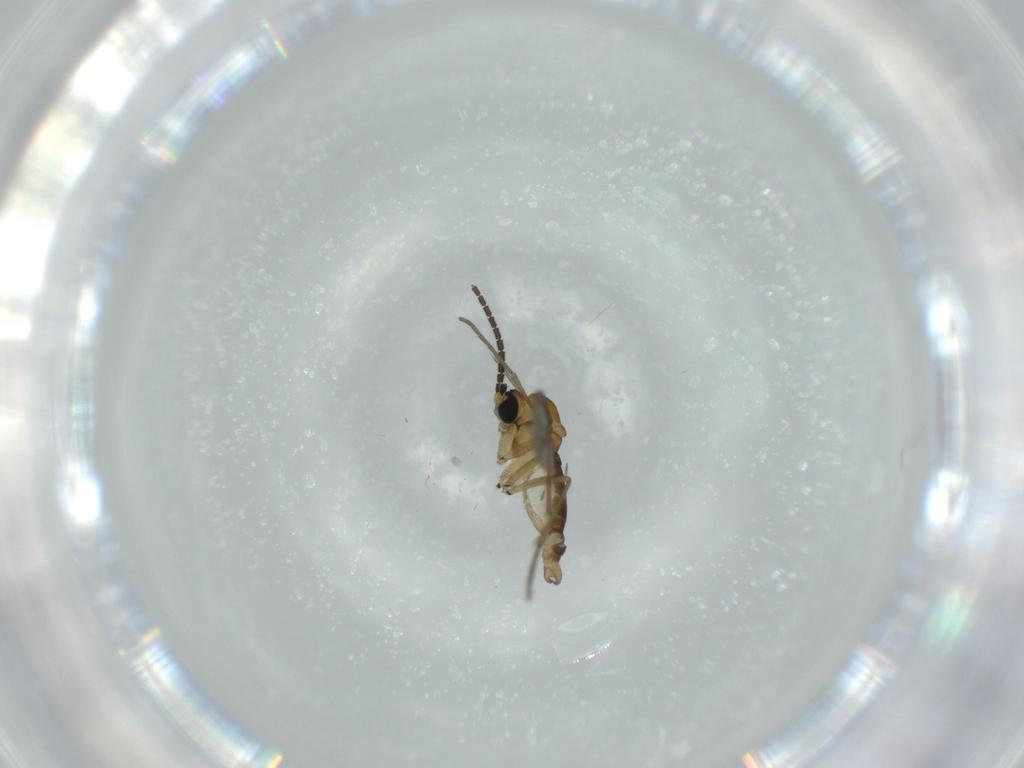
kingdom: Animalia
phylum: Arthropoda
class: Insecta
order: Diptera
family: Sciaridae
